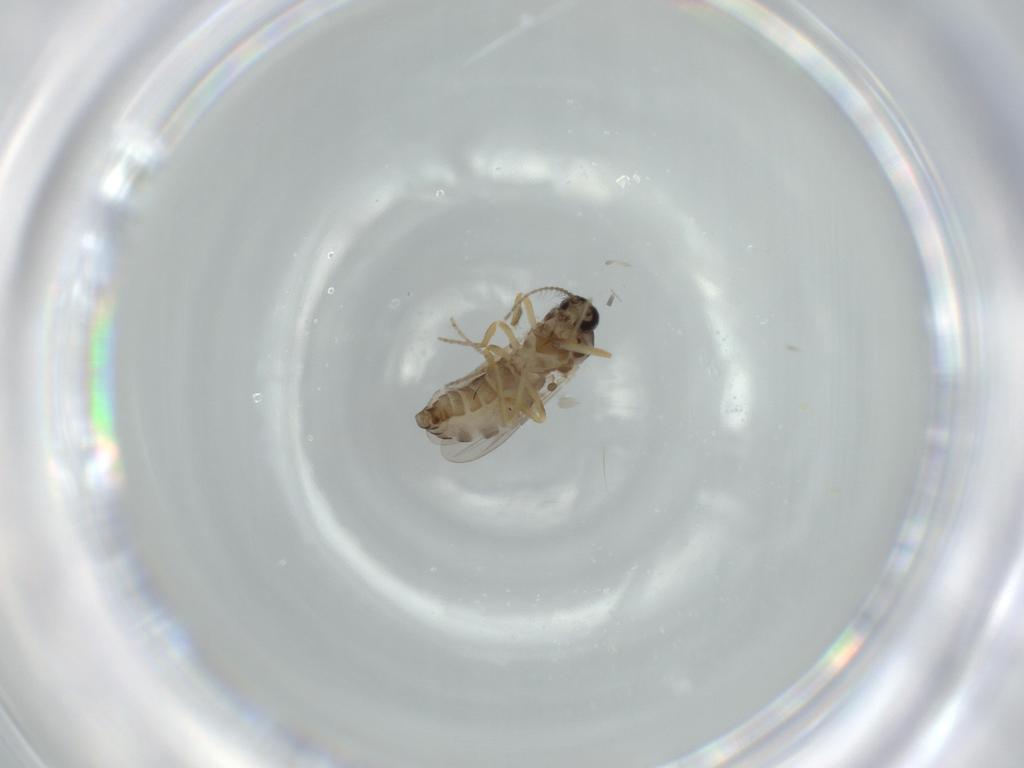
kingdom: Animalia
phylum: Arthropoda
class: Insecta
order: Diptera
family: Ceratopogonidae
